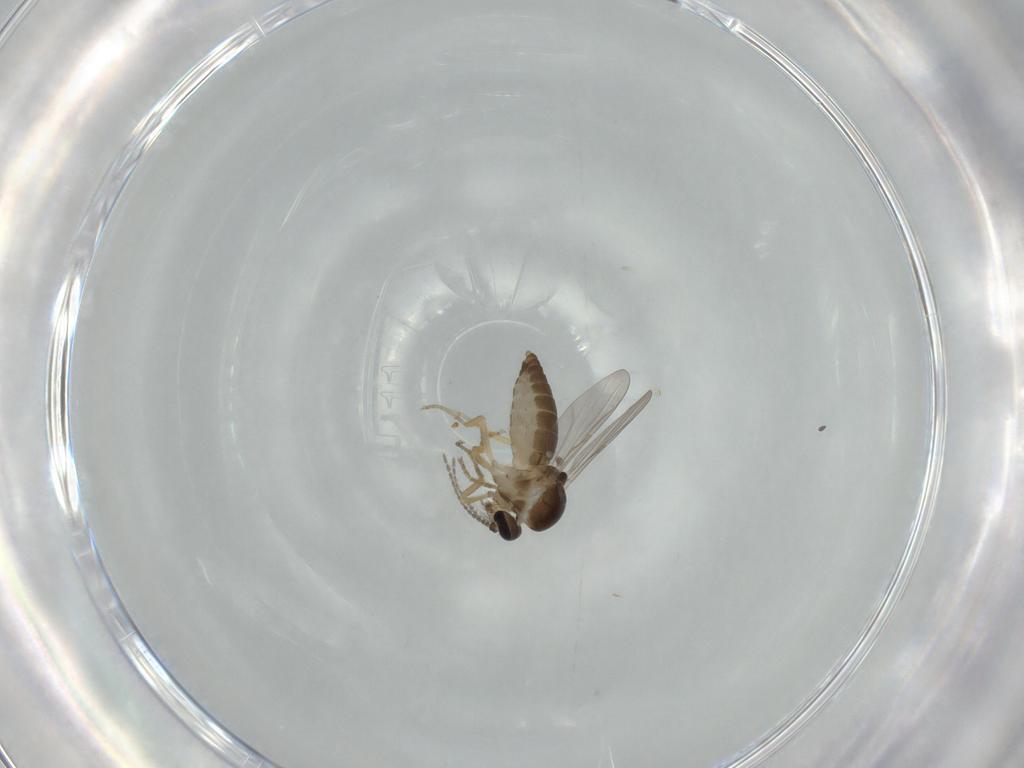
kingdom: Animalia
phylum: Arthropoda
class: Insecta
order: Diptera
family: Ceratopogonidae
